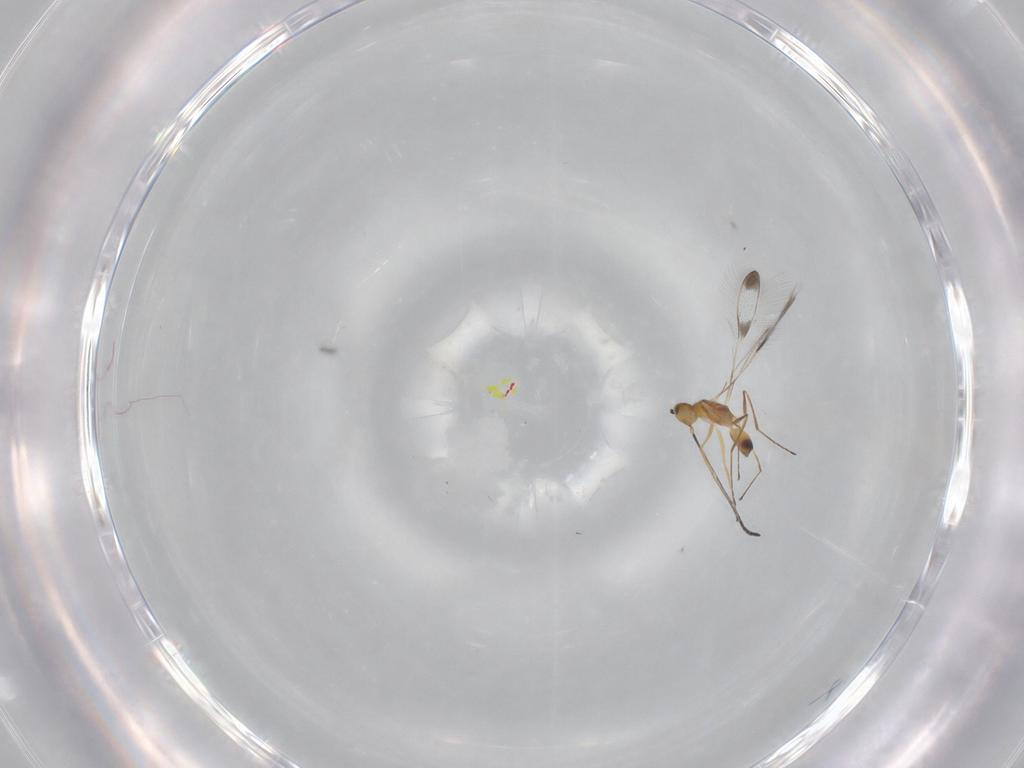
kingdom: Animalia
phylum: Arthropoda
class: Insecta
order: Hymenoptera
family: Mymaridae
